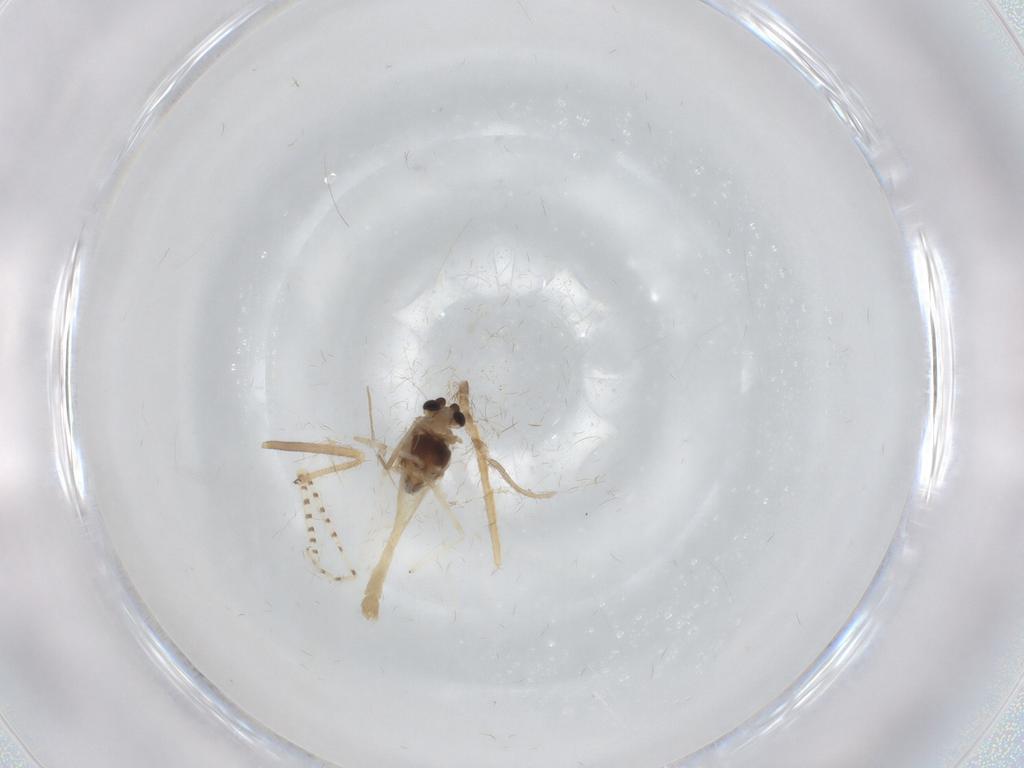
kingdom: Animalia
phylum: Arthropoda
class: Insecta
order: Diptera
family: Chironomidae
